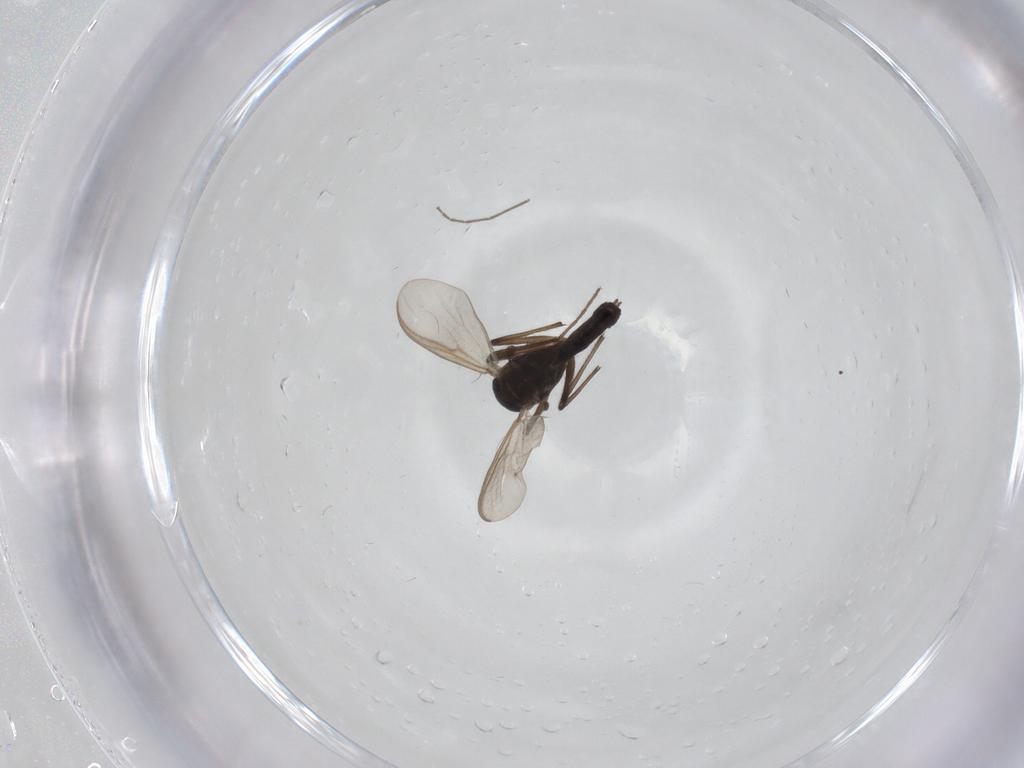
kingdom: Animalia
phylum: Arthropoda
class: Insecta
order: Diptera
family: Chironomidae
